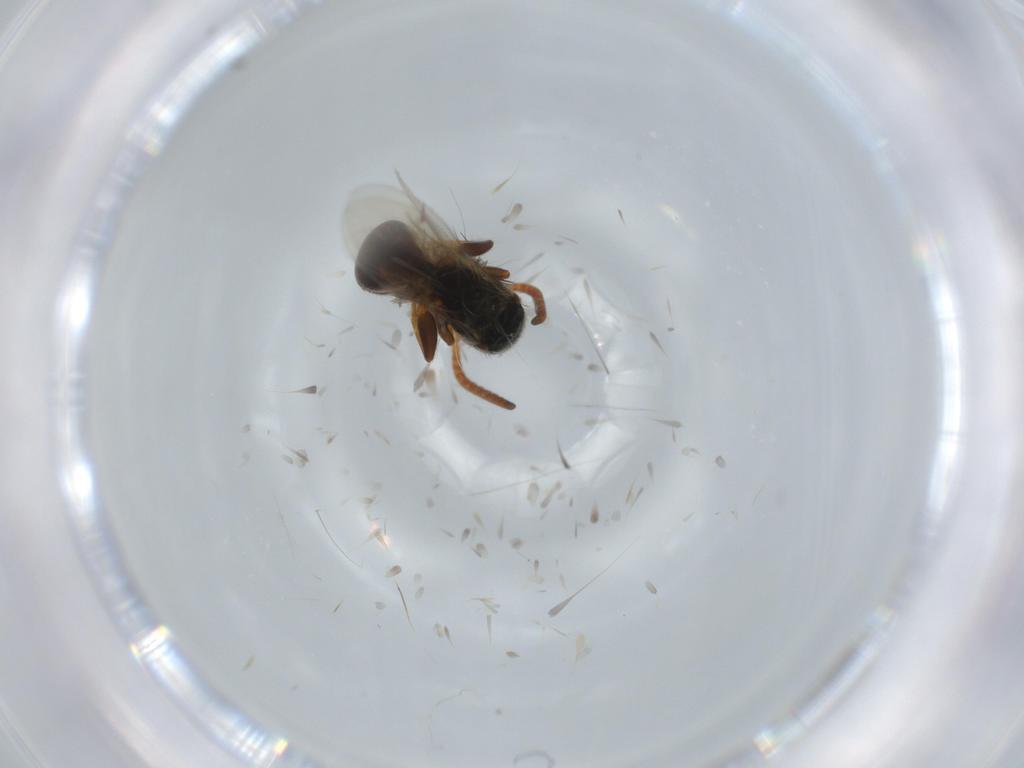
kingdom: Animalia
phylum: Arthropoda
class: Insecta
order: Hymenoptera
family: Bethylidae
